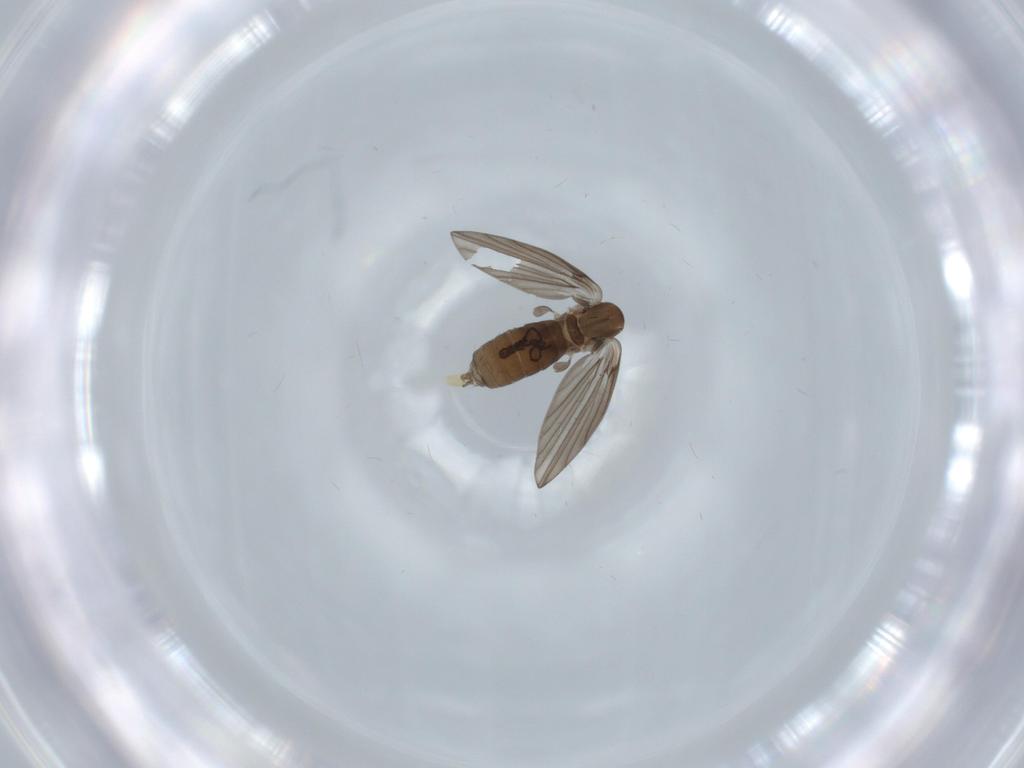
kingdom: Animalia
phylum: Arthropoda
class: Insecta
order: Diptera
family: Psychodidae
